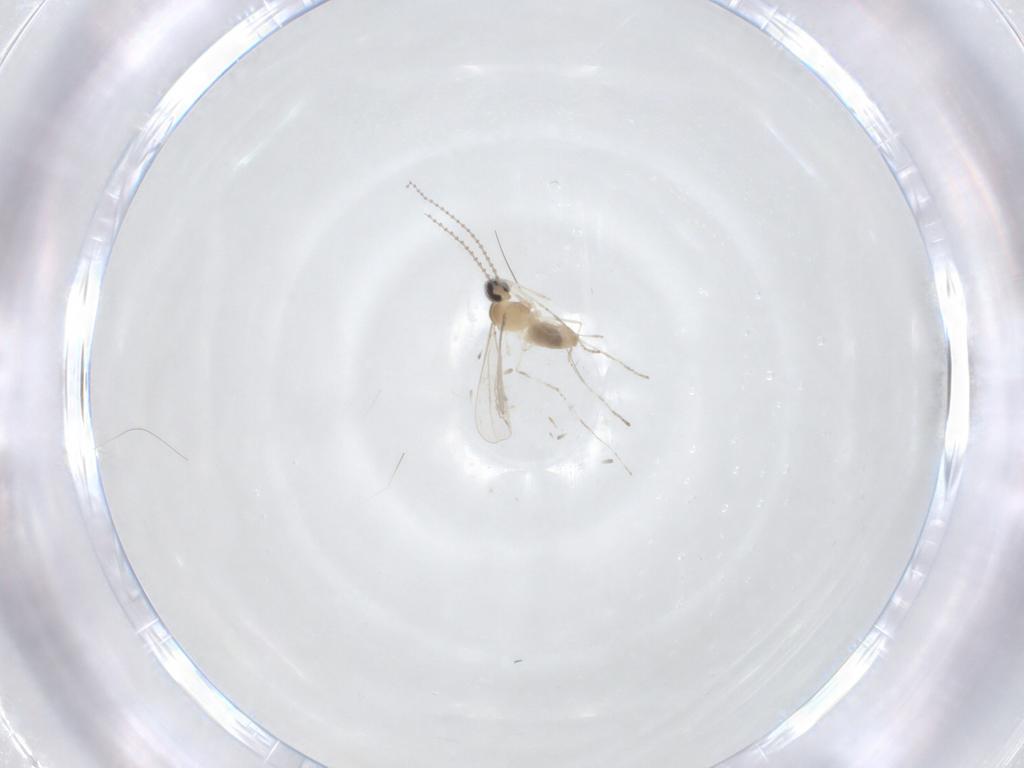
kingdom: Animalia
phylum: Arthropoda
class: Insecta
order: Diptera
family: Cecidomyiidae
